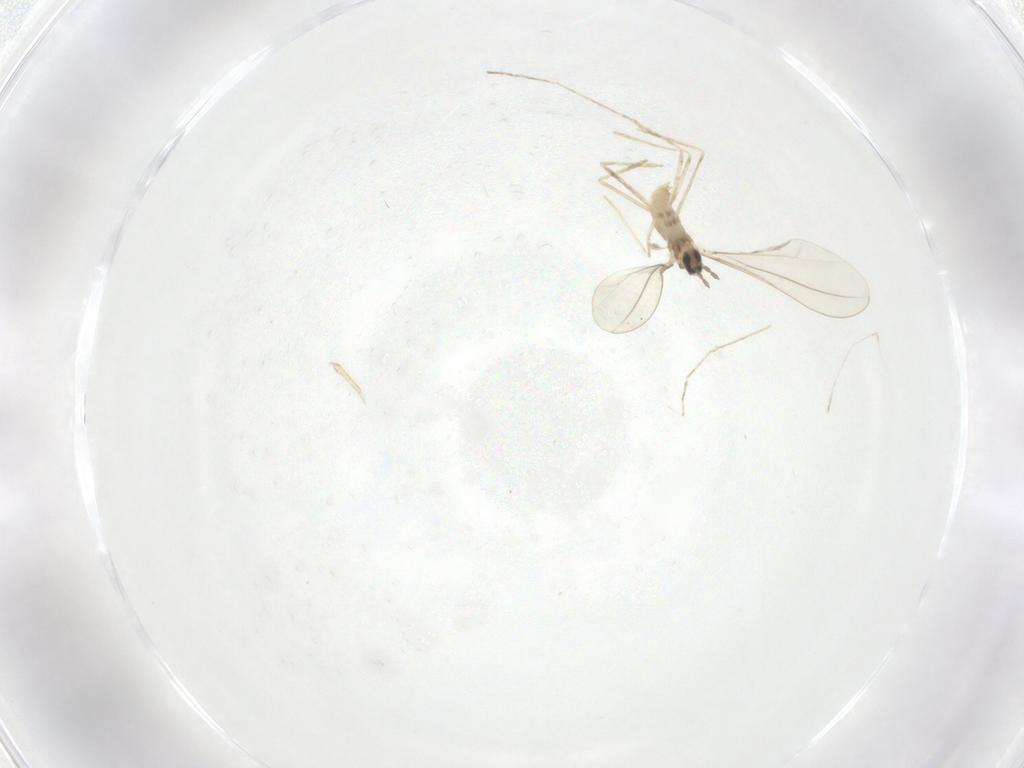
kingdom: Animalia
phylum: Arthropoda
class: Insecta
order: Diptera
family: Cecidomyiidae
